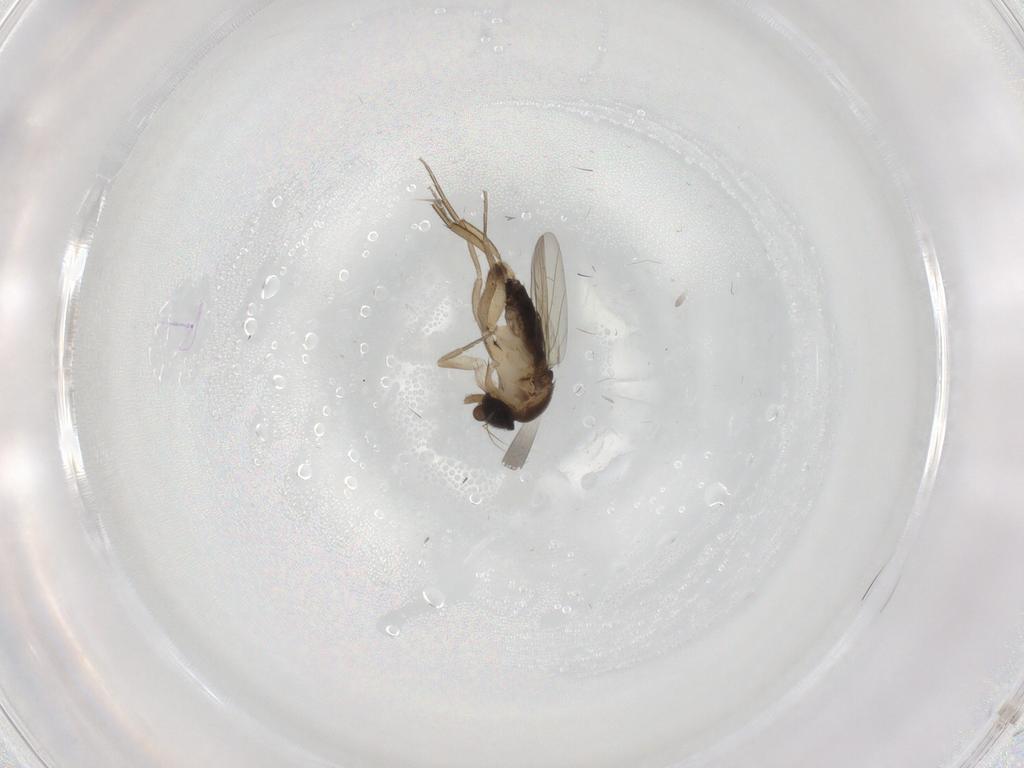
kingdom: Animalia
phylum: Arthropoda
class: Insecta
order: Diptera
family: Phoridae
